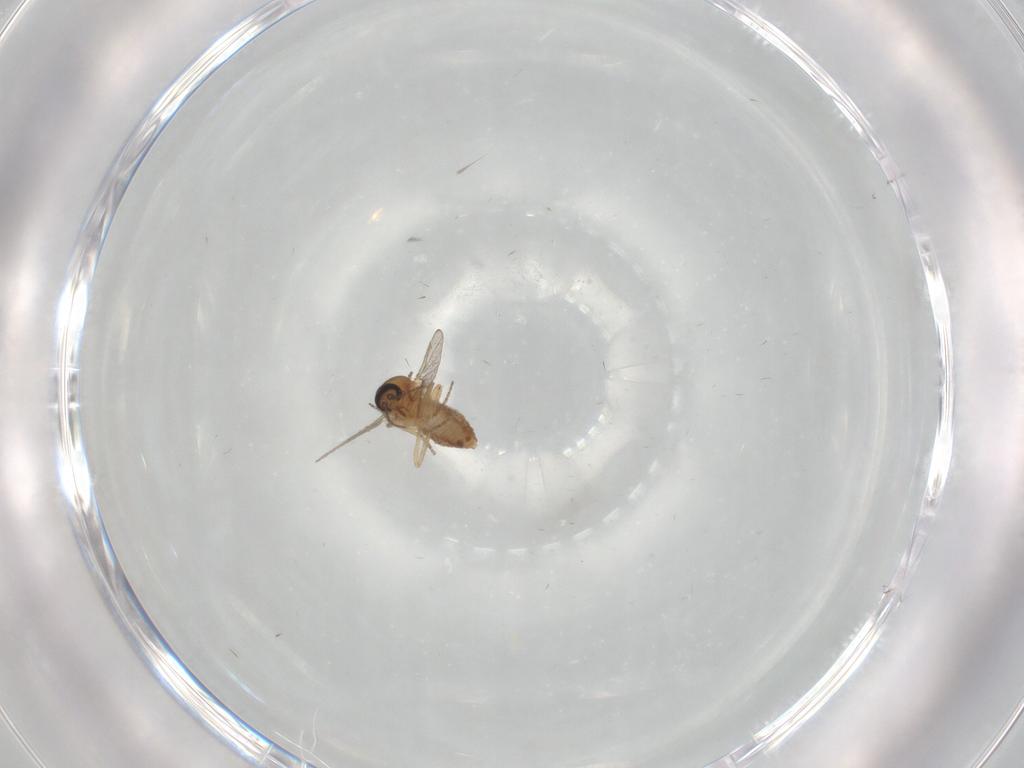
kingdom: Animalia
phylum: Arthropoda
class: Insecta
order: Diptera
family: Ceratopogonidae
